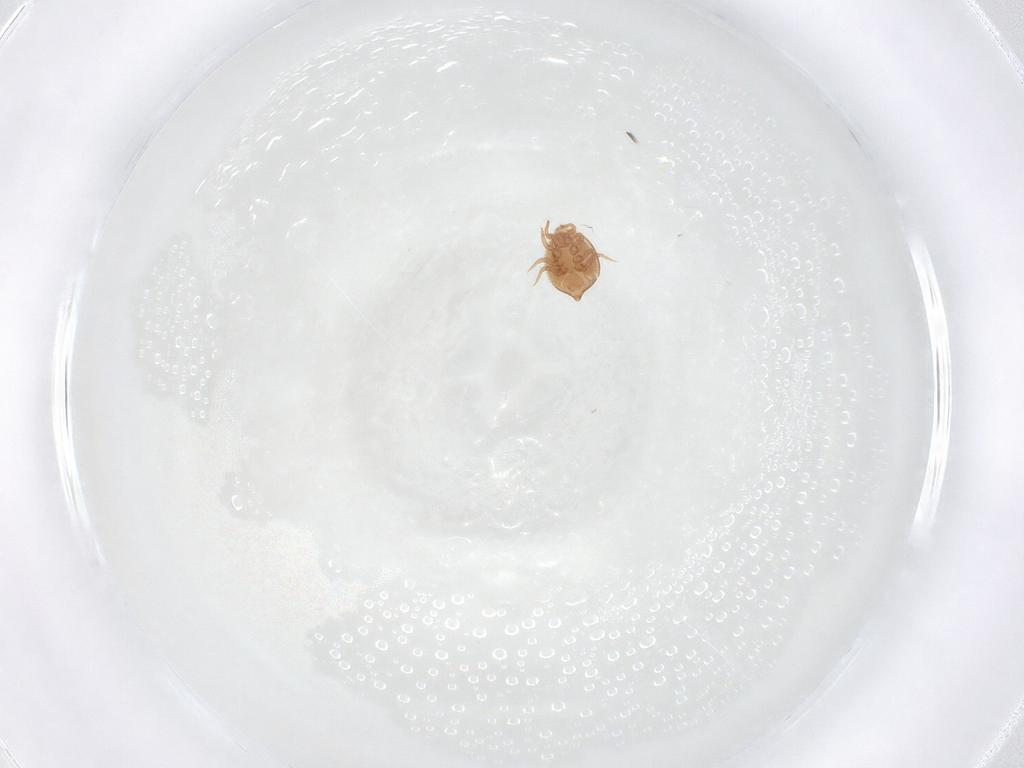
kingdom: Animalia
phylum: Arthropoda
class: Arachnida
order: Mesostigmata
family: Polyaspididae
